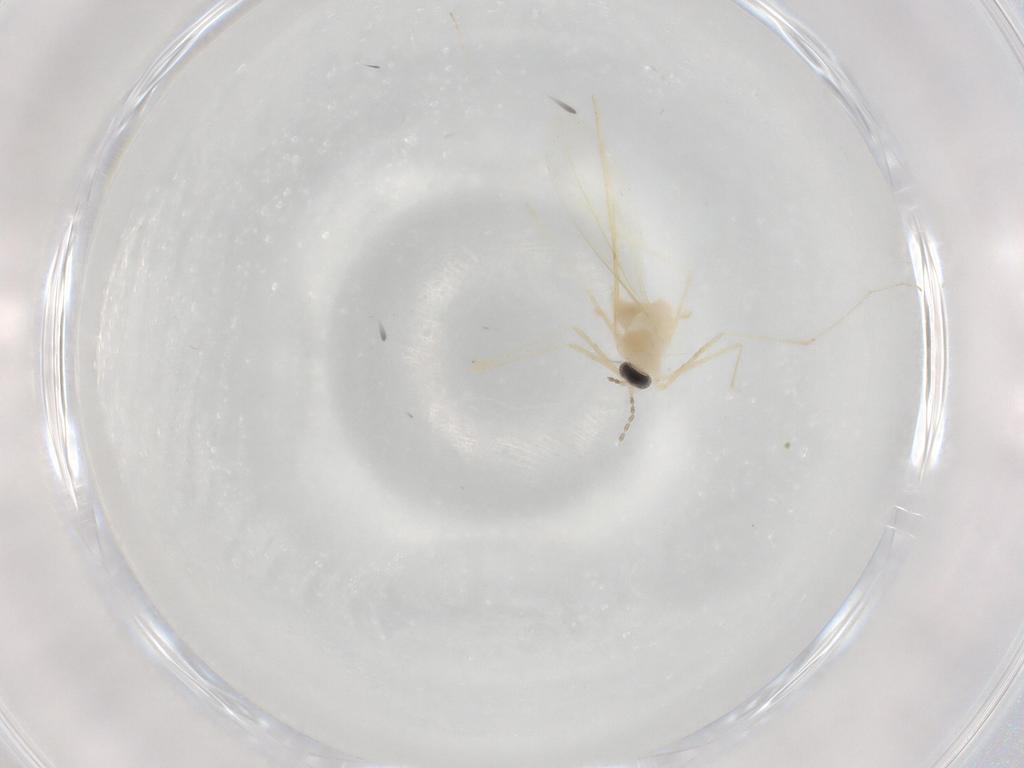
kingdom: Animalia
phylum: Arthropoda
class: Insecta
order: Diptera
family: Cecidomyiidae
